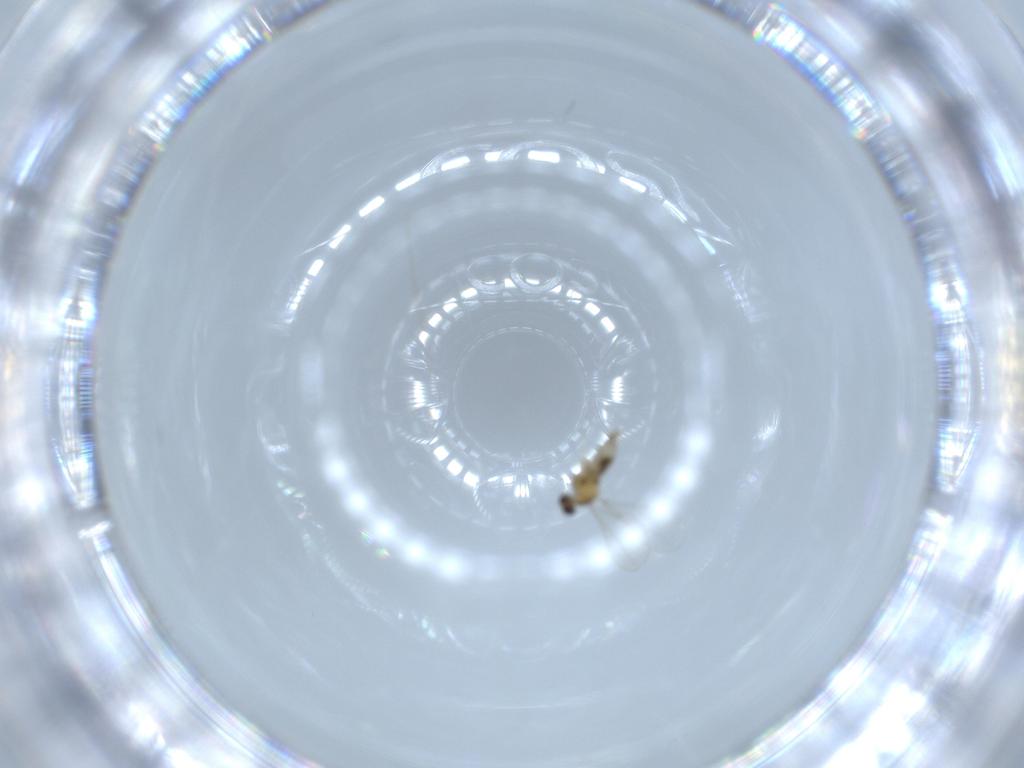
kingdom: Animalia
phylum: Arthropoda
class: Insecta
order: Diptera
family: Cecidomyiidae
